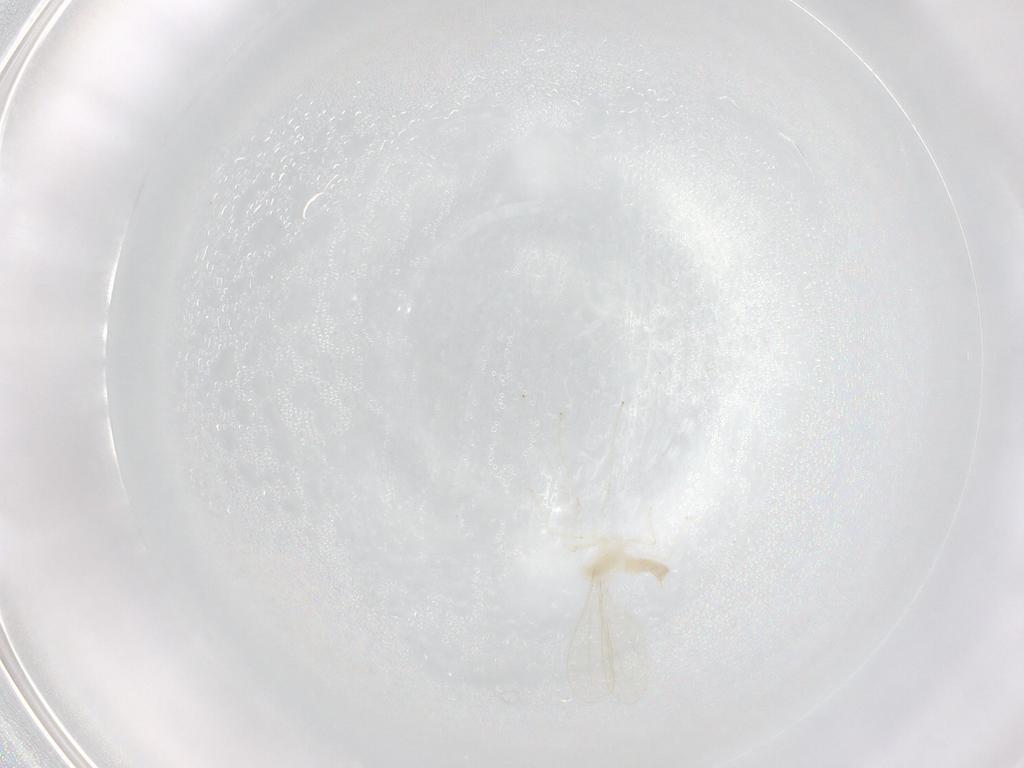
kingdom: Animalia
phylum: Arthropoda
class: Insecta
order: Diptera
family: Cecidomyiidae
